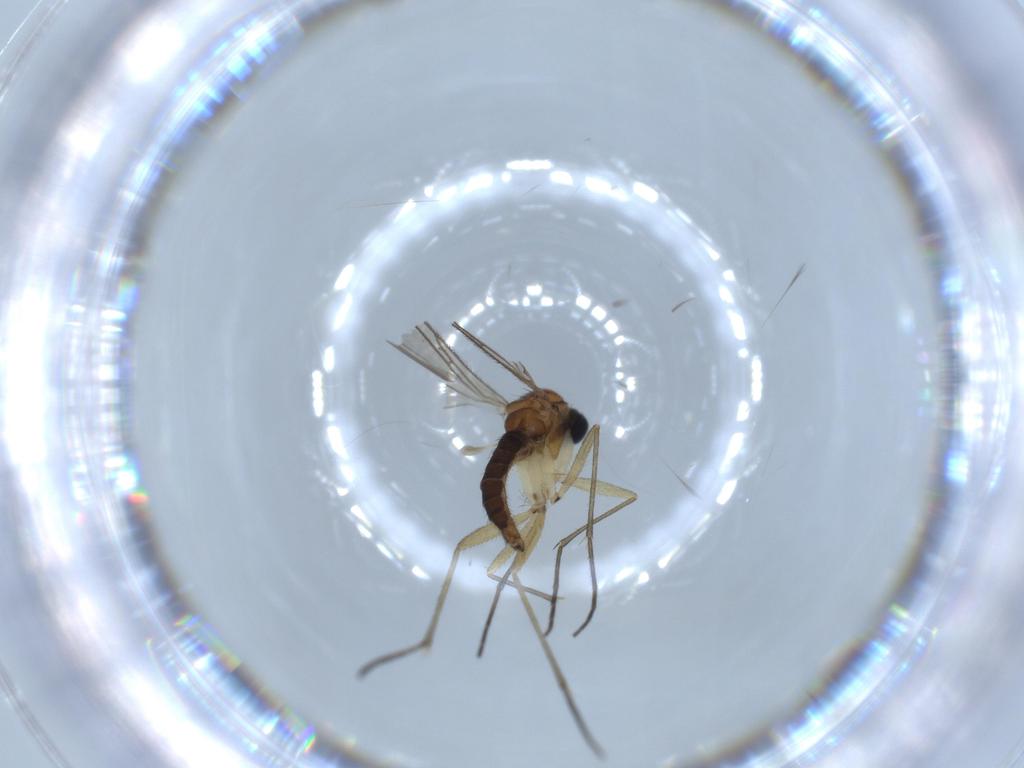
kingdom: Animalia
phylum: Arthropoda
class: Insecta
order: Diptera
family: Sciaridae
